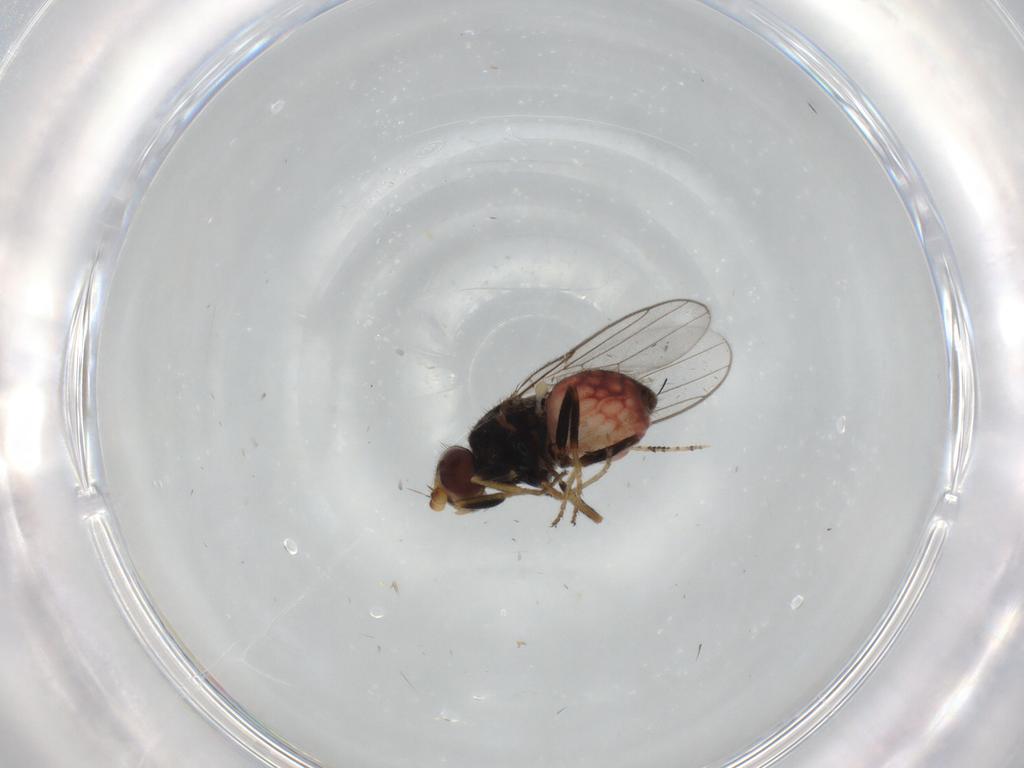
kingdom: Animalia
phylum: Arthropoda
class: Insecta
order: Diptera
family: Chloropidae
